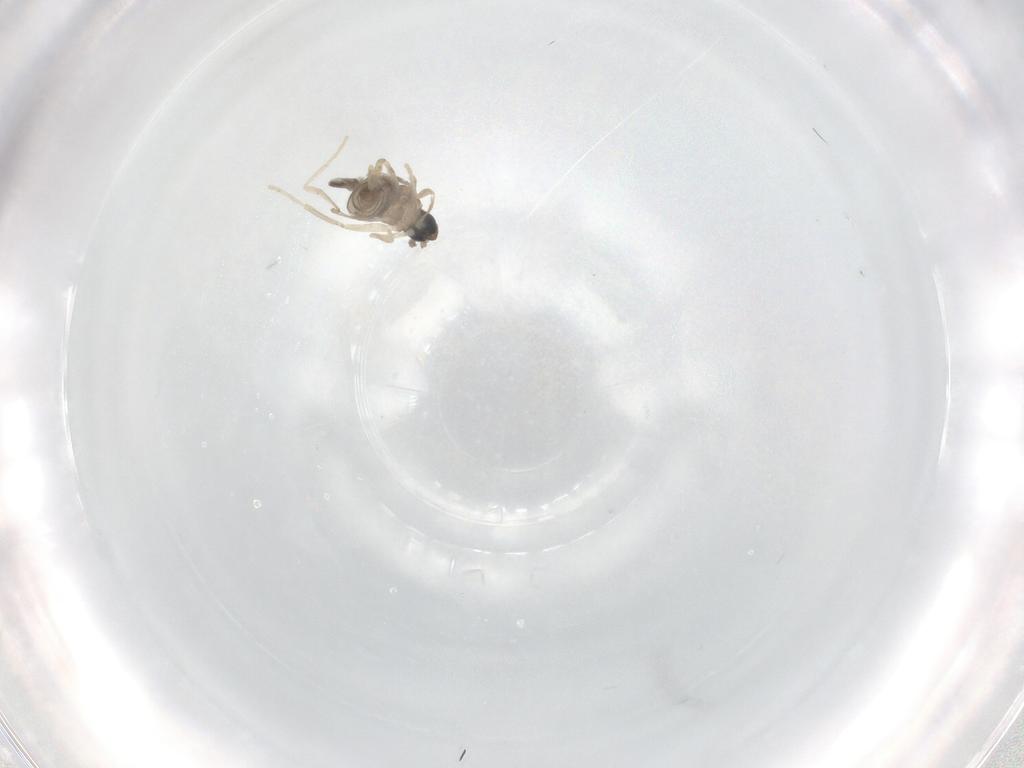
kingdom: Animalia
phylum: Arthropoda
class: Insecta
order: Diptera
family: Cecidomyiidae
